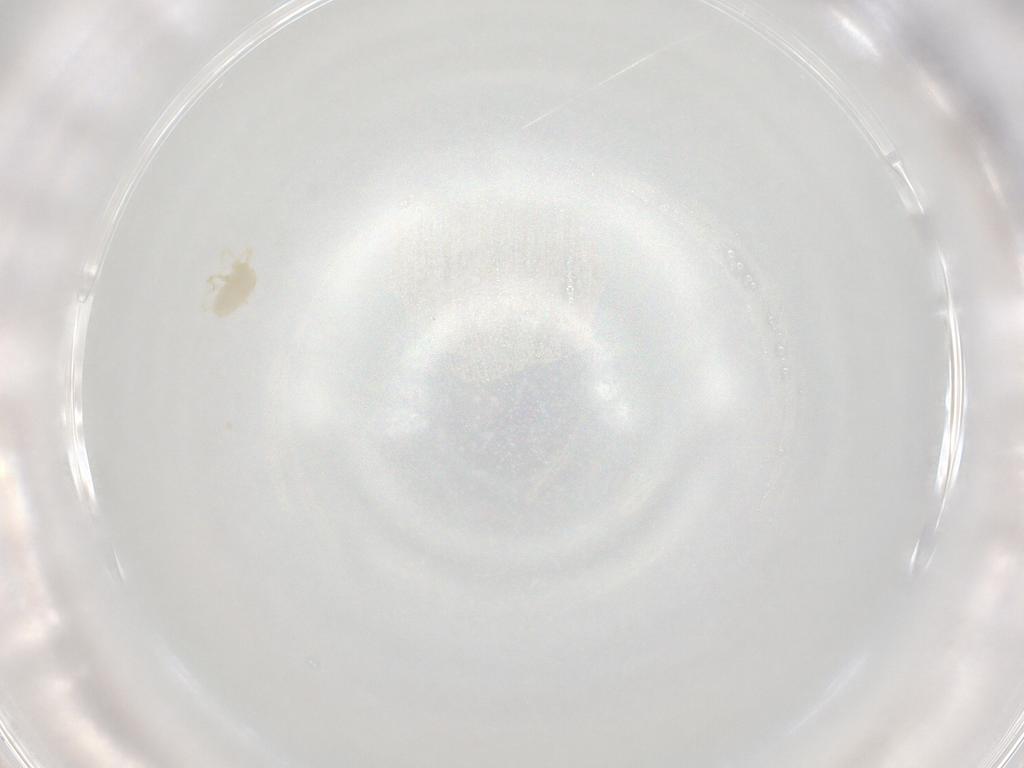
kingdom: Animalia
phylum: Arthropoda
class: Arachnida
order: Trombidiformes
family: Trombidiidae
